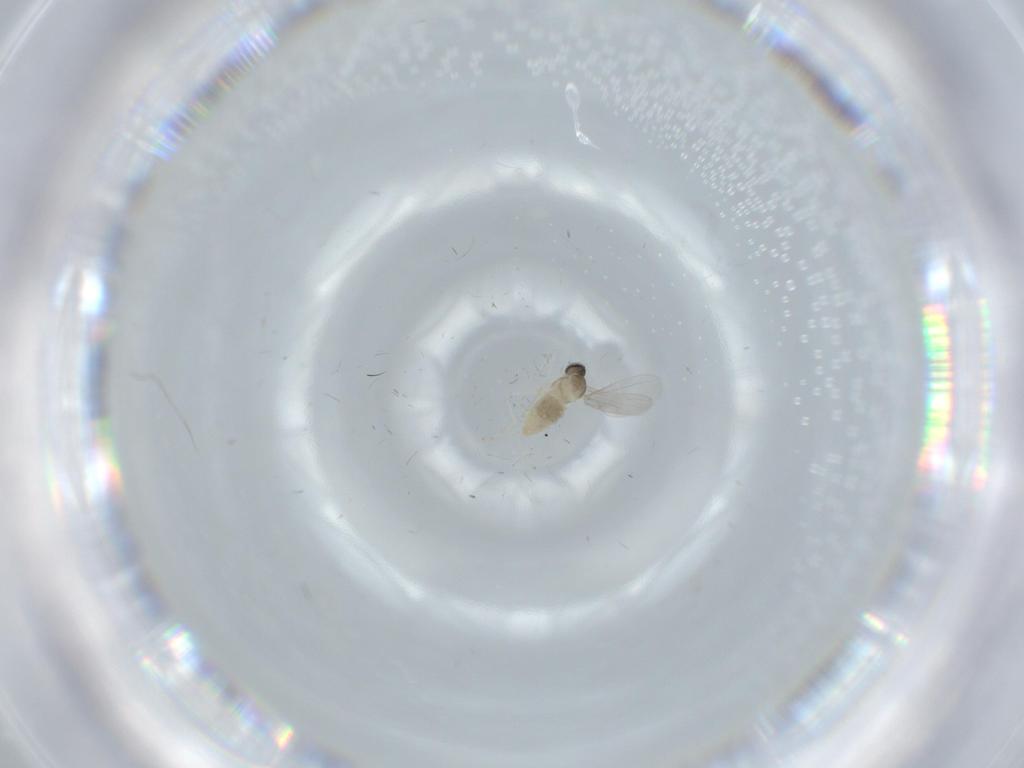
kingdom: Animalia
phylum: Arthropoda
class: Insecta
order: Diptera
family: Cecidomyiidae
